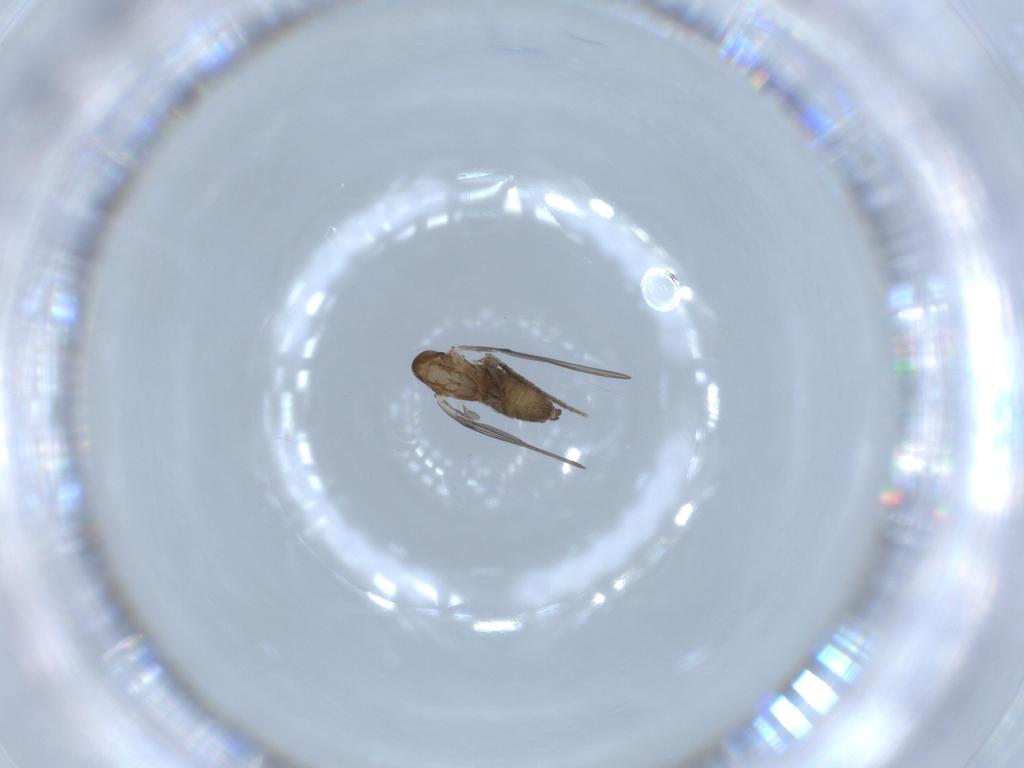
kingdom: Animalia
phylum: Arthropoda
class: Insecta
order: Diptera
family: Psychodidae
